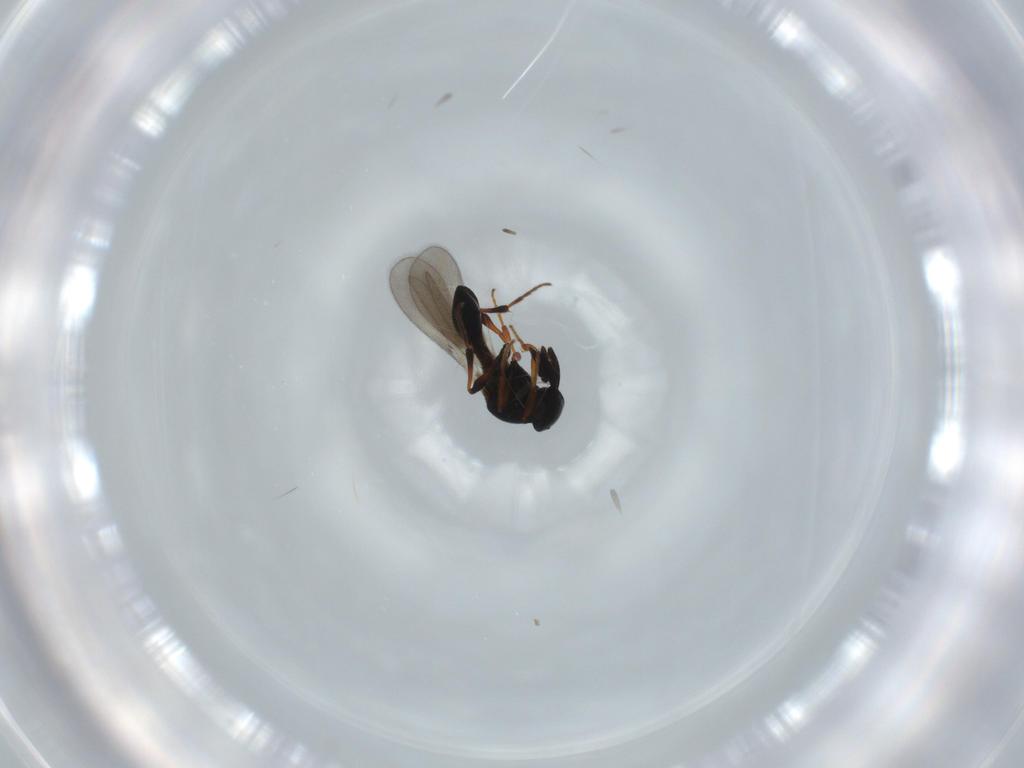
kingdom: Animalia
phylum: Arthropoda
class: Insecta
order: Hymenoptera
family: Platygastridae
